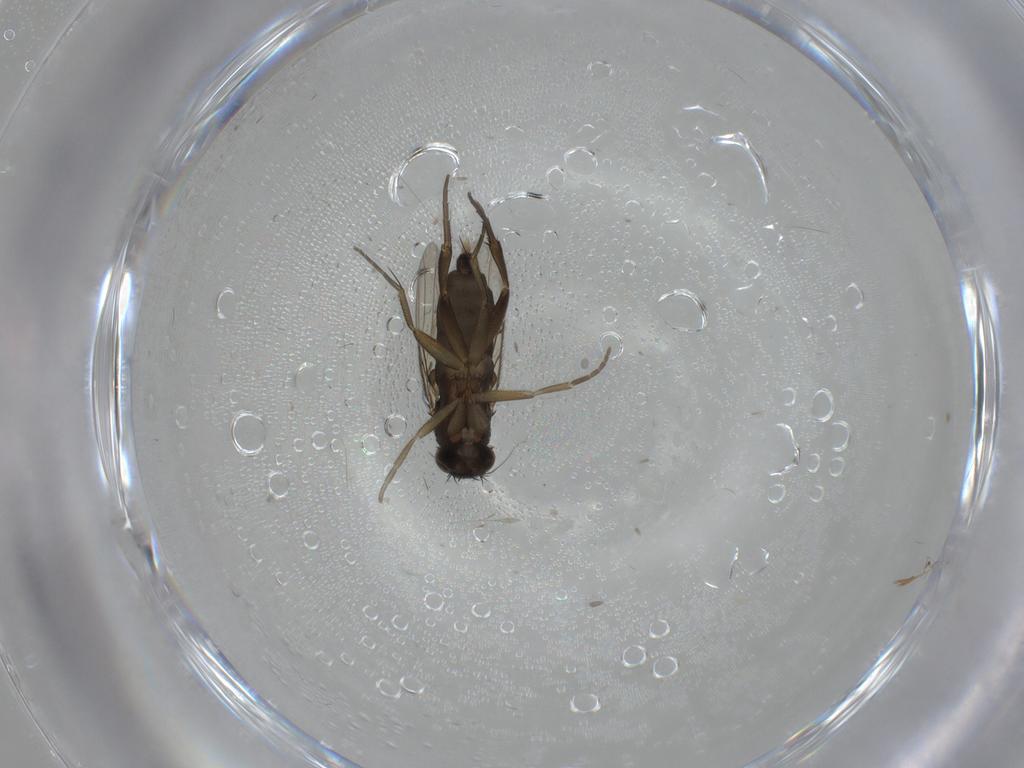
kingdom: Animalia
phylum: Arthropoda
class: Insecta
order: Diptera
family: Phoridae
